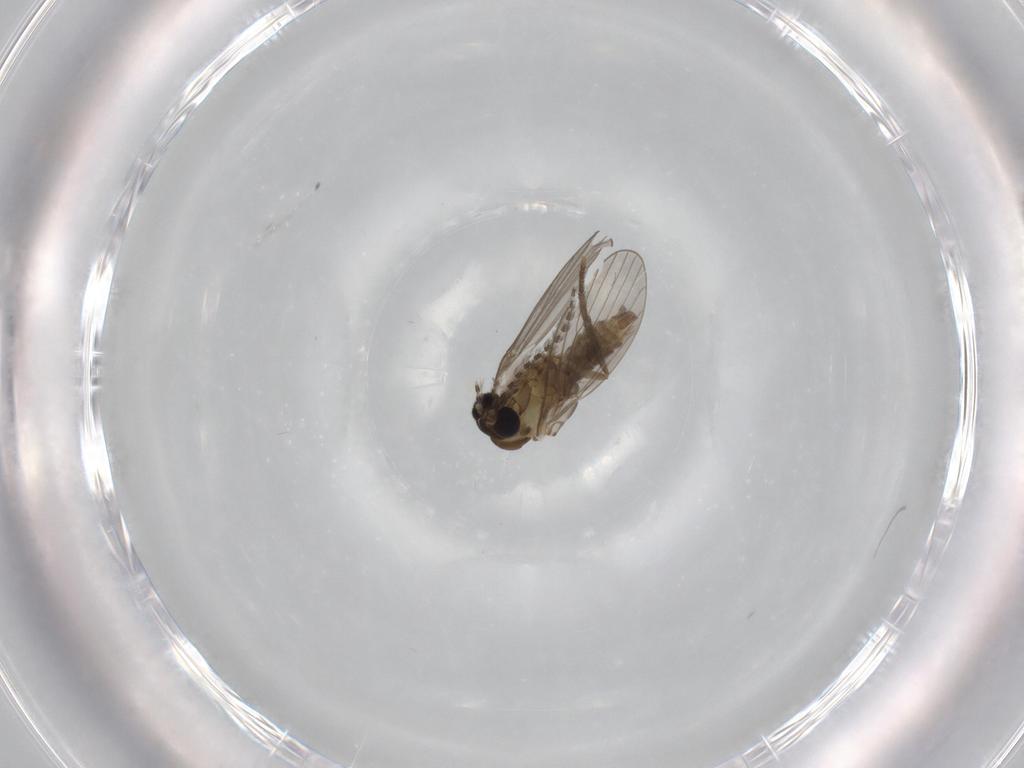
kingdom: Animalia
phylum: Arthropoda
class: Insecta
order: Diptera
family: Psychodidae
